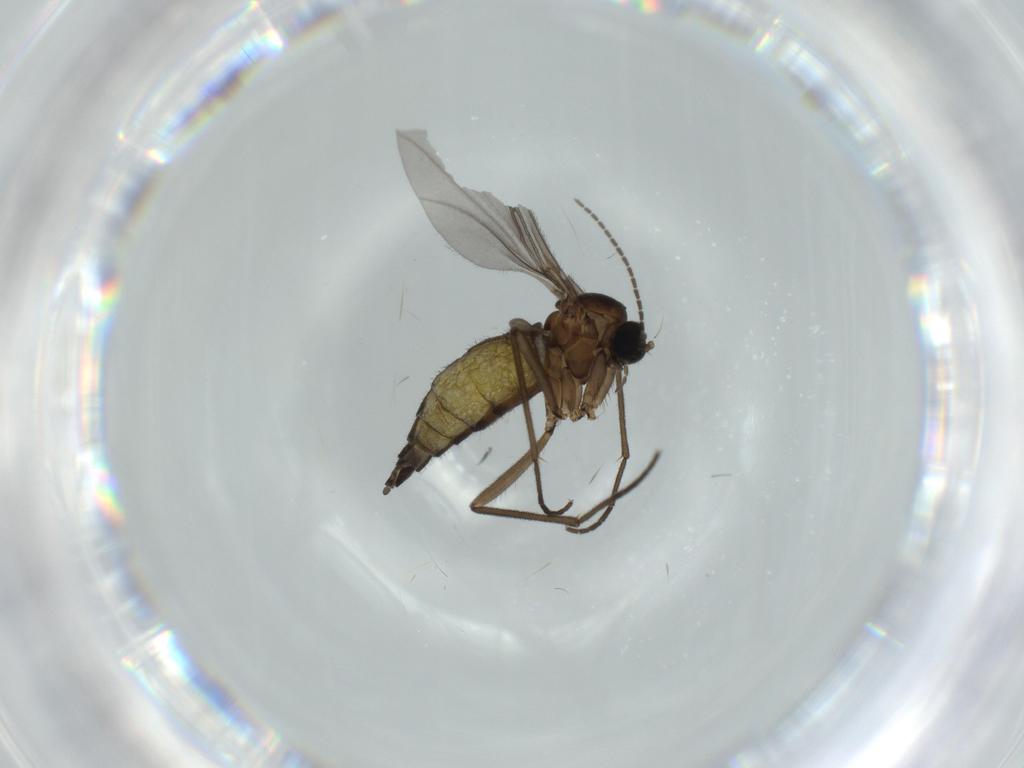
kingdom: Animalia
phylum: Arthropoda
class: Insecta
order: Diptera
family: Sciaridae
